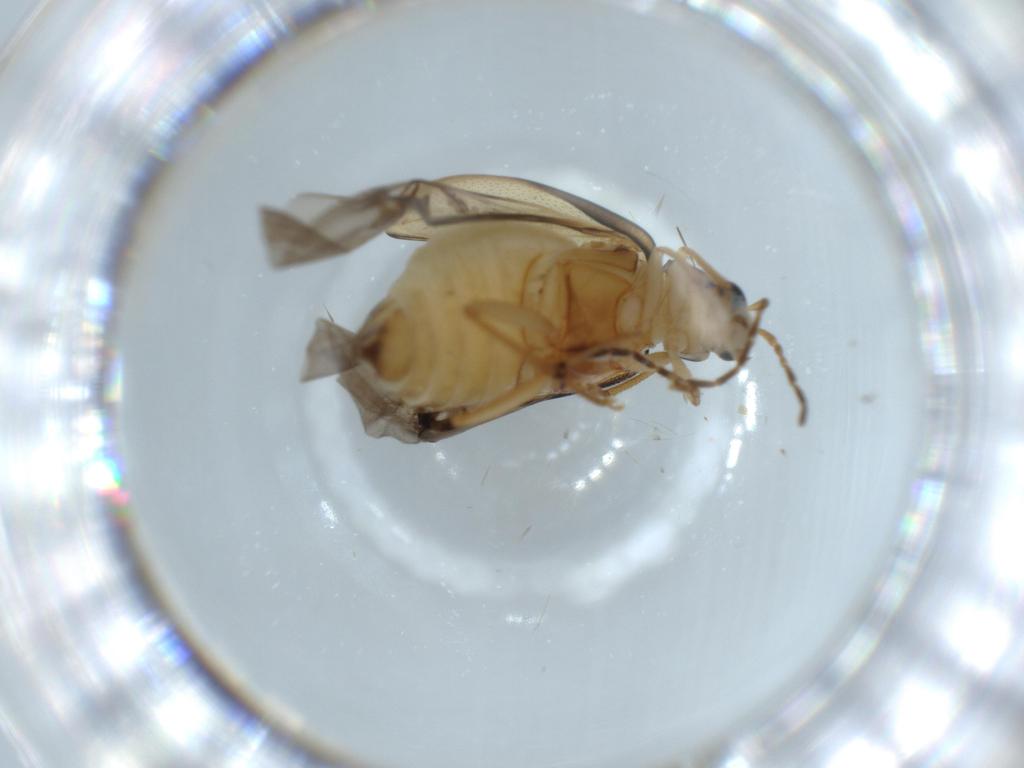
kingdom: Animalia
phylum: Arthropoda
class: Insecta
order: Coleoptera
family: Chrysomelidae
